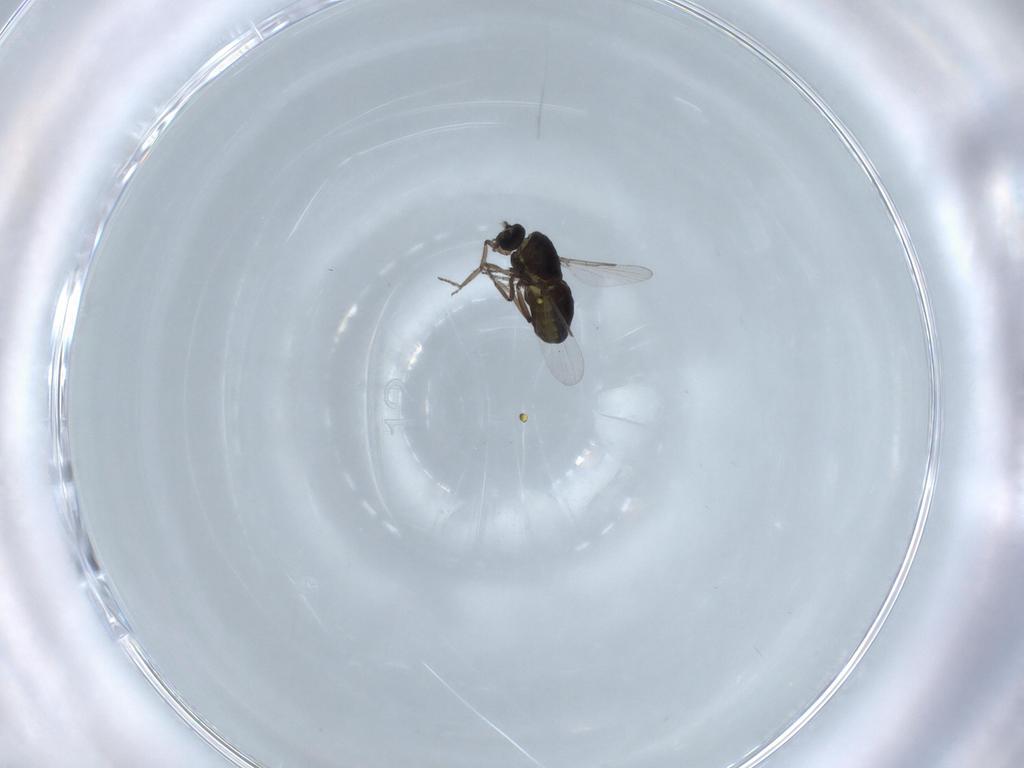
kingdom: Animalia
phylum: Arthropoda
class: Insecta
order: Diptera
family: Ceratopogonidae
